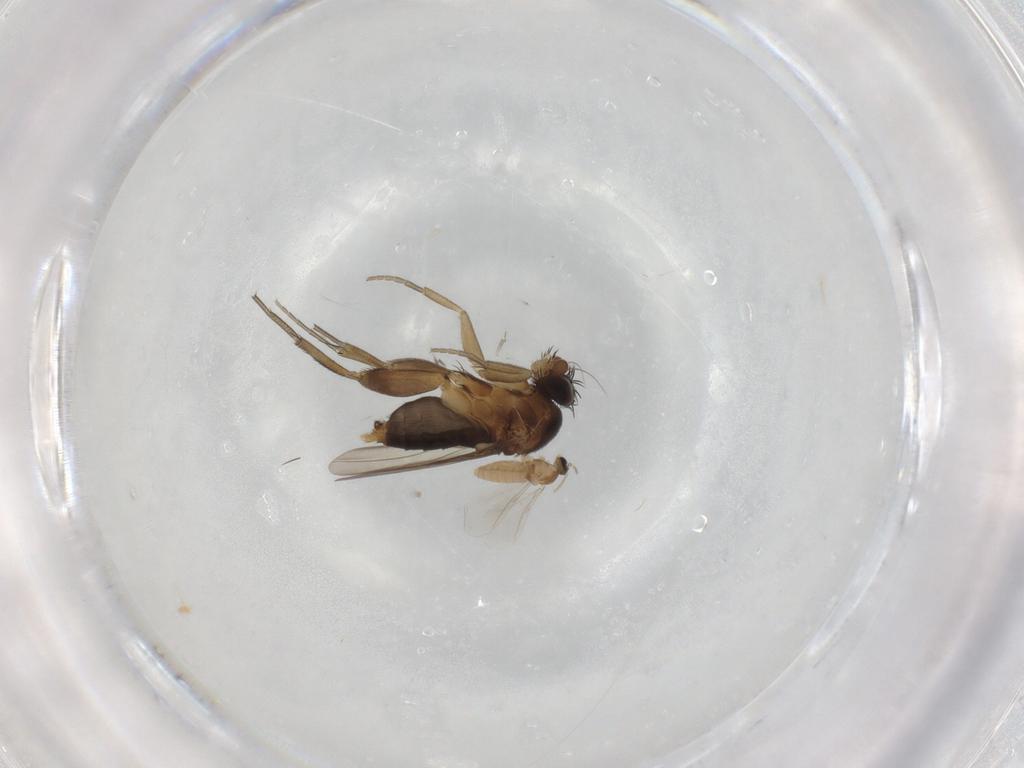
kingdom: Animalia
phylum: Arthropoda
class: Insecta
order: Diptera
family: Phoridae
